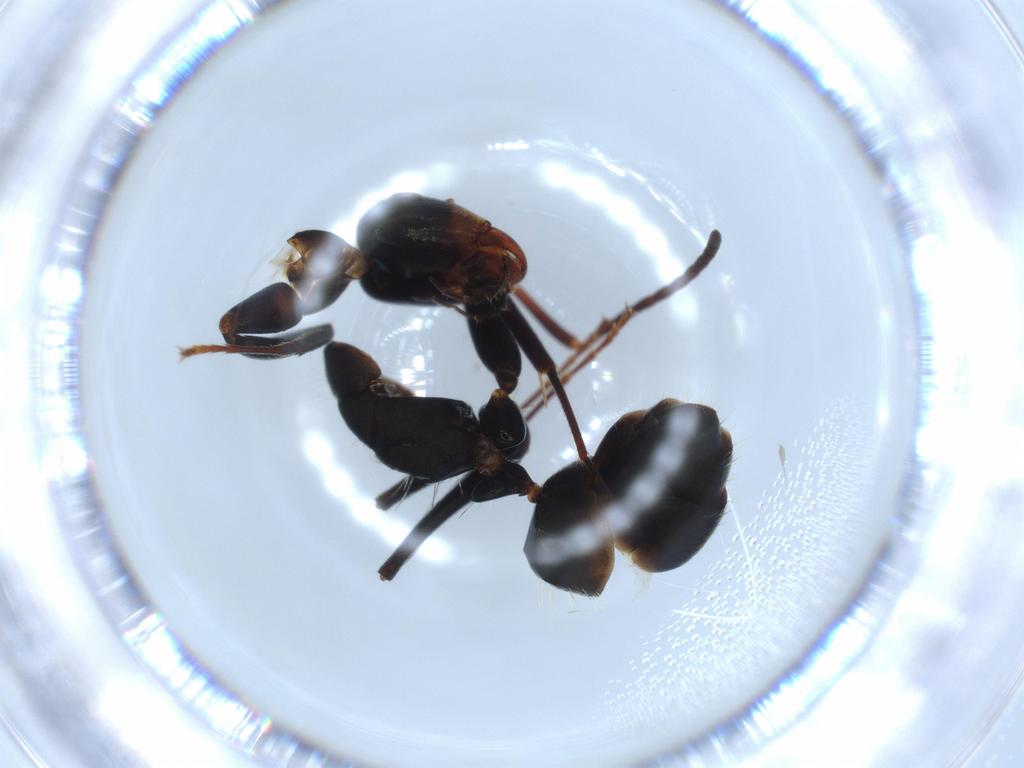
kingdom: Animalia
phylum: Arthropoda
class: Insecta
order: Hymenoptera
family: Formicidae
